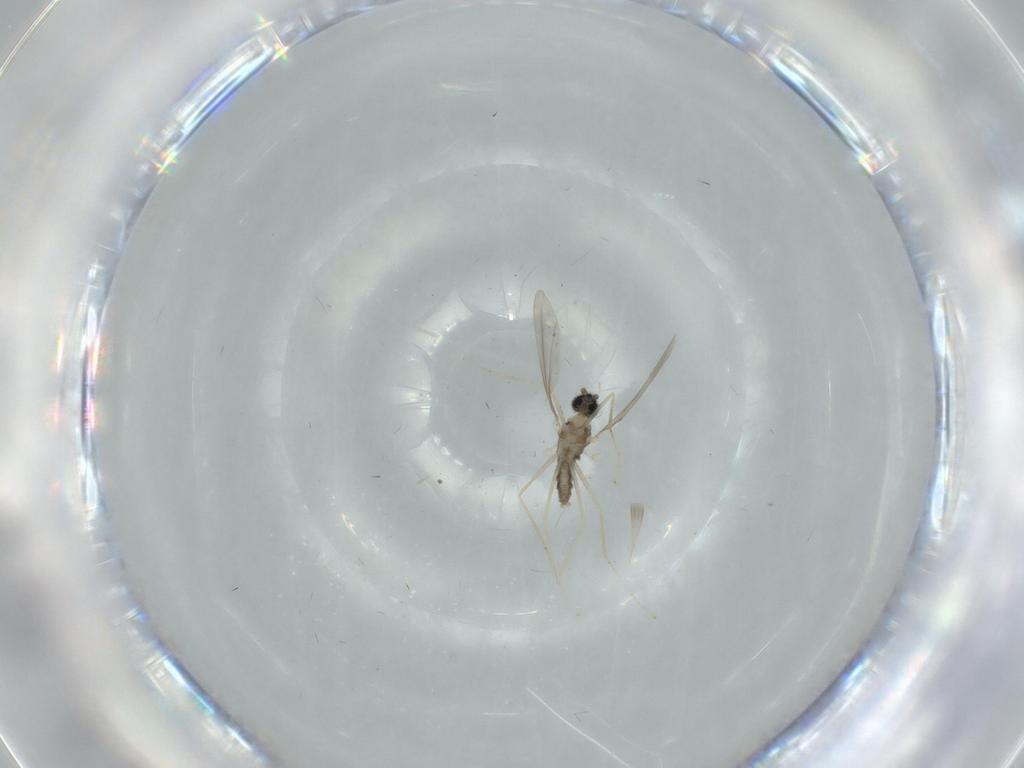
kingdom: Animalia
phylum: Arthropoda
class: Insecta
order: Diptera
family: Cecidomyiidae
